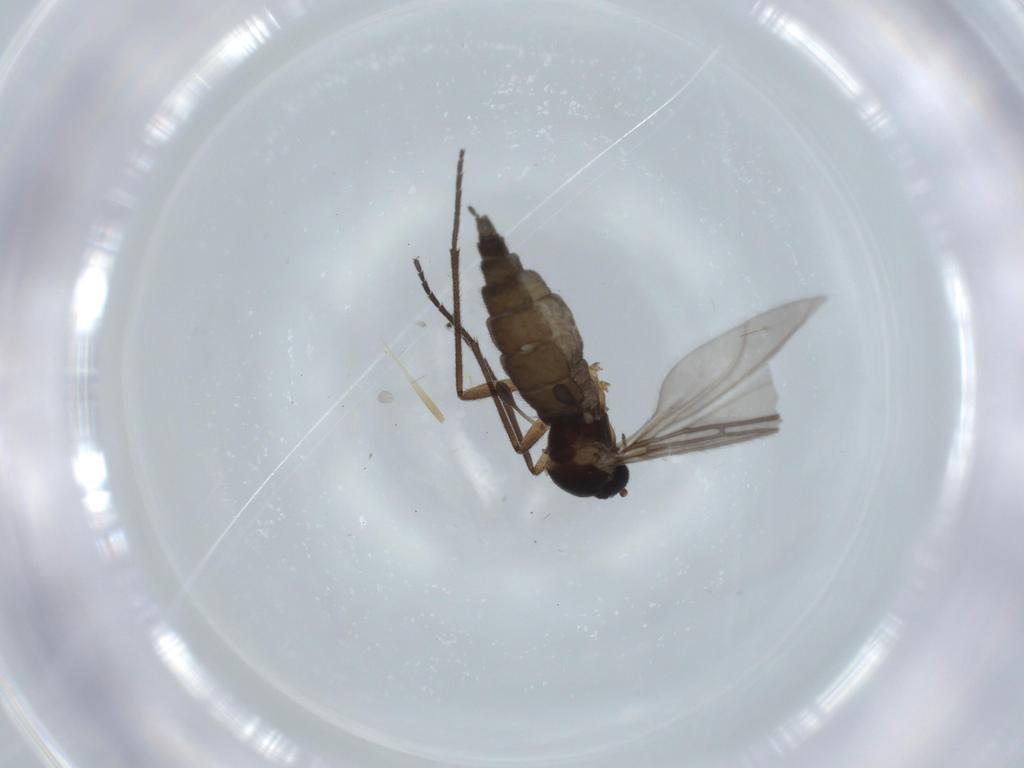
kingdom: Animalia
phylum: Arthropoda
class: Insecta
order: Diptera
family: Sciaridae
